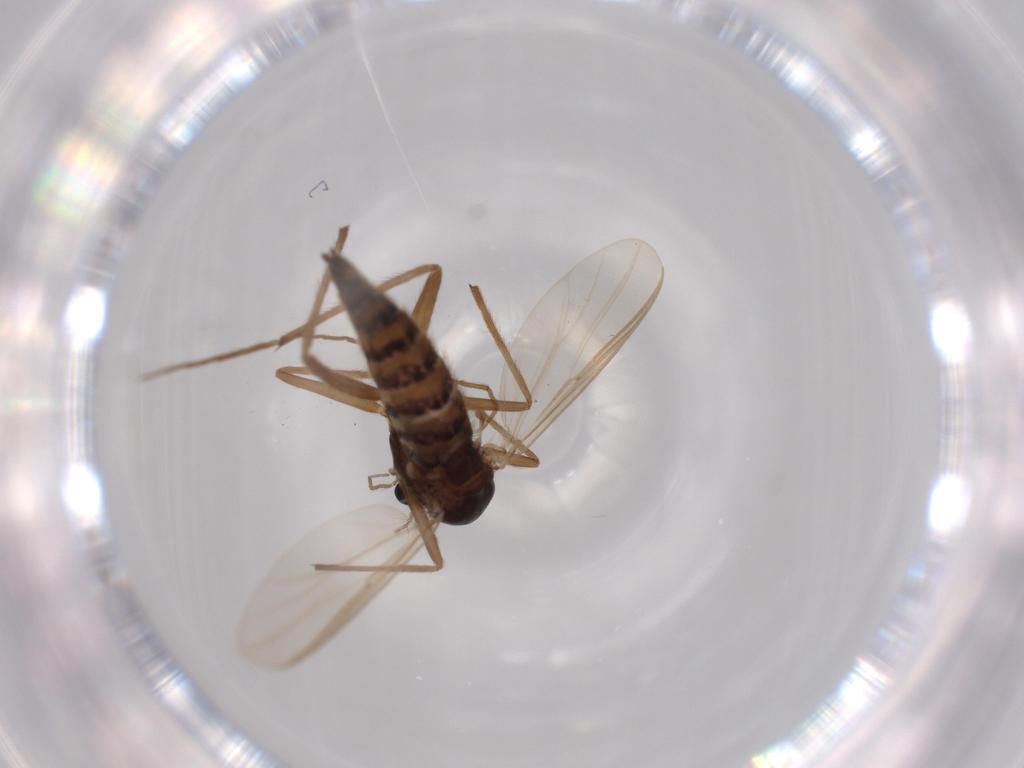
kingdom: Animalia
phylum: Arthropoda
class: Insecta
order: Diptera
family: Chironomidae
